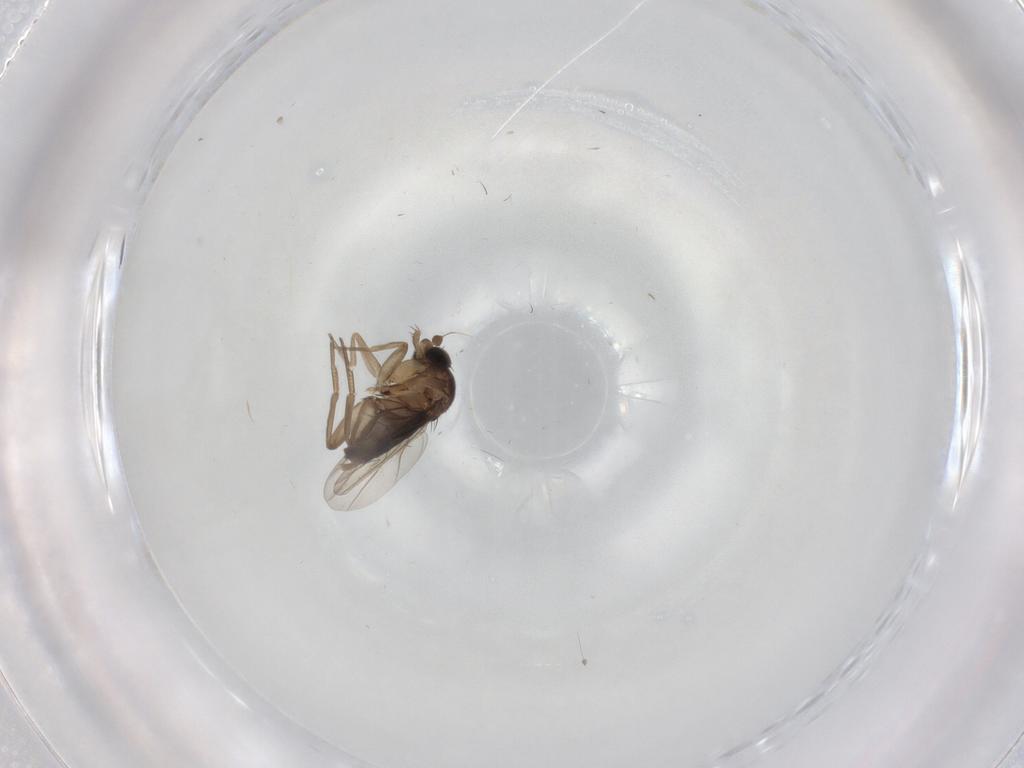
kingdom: Animalia
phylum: Arthropoda
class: Insecta
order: Diptera
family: Phoridae
